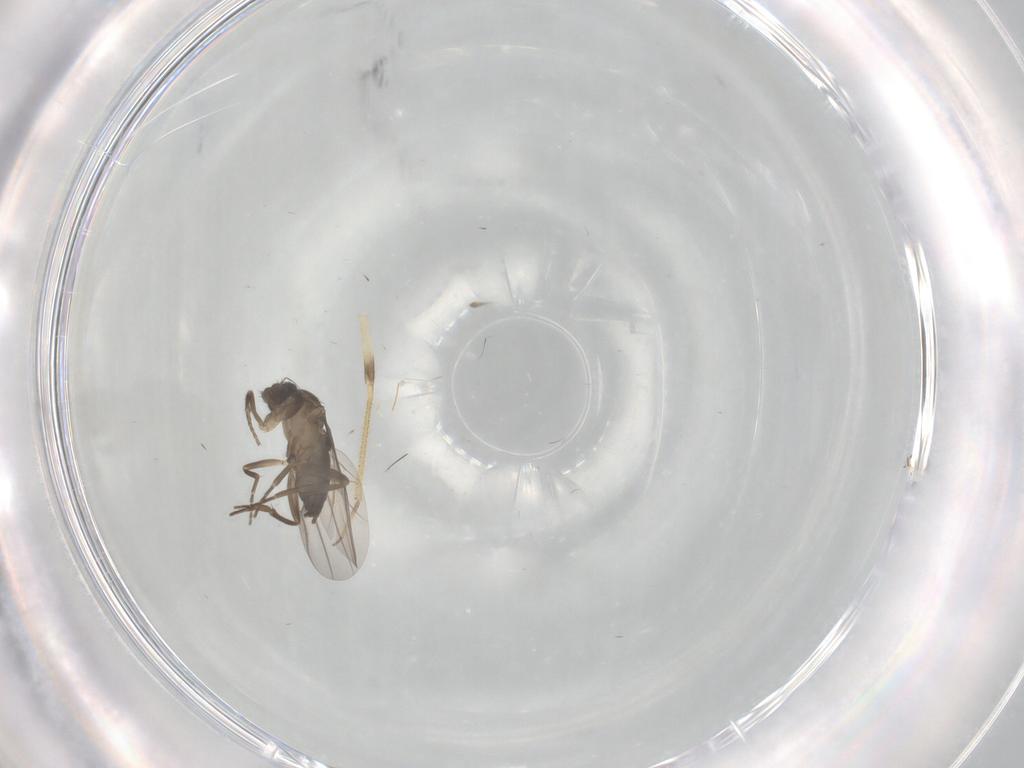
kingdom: Animalia
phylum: Arthropoda
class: Insecta
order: Diptera
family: Phoridae
